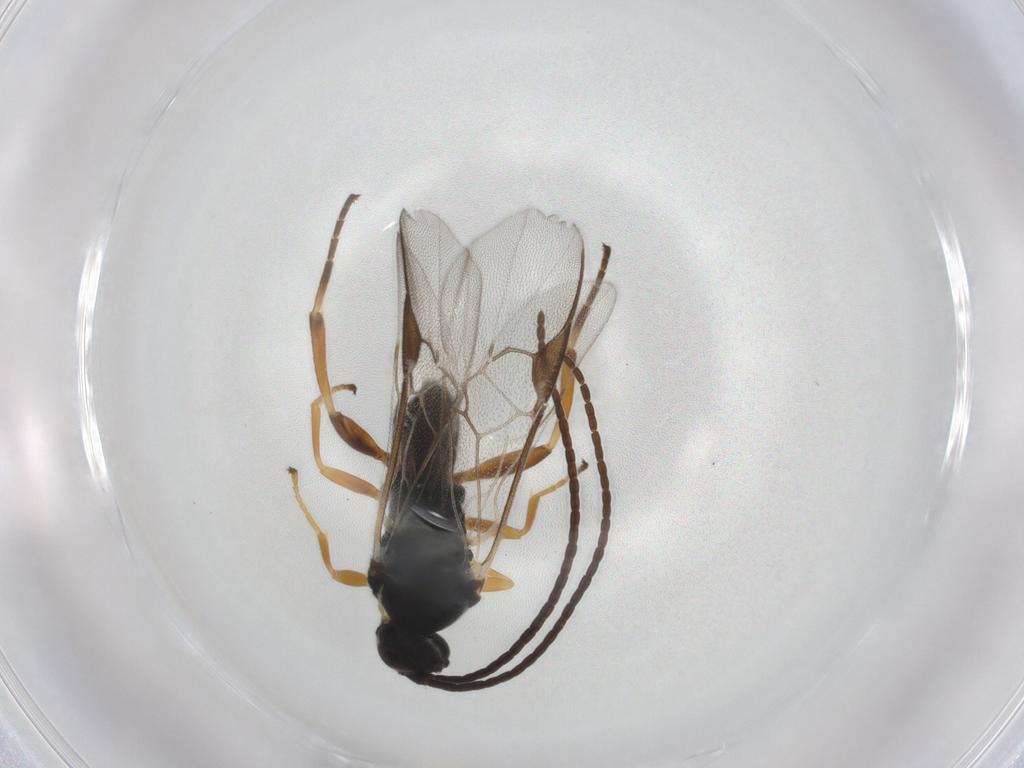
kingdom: Animalia
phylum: Arthropoda
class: Insecta
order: Hymenoptera
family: Braconidae
